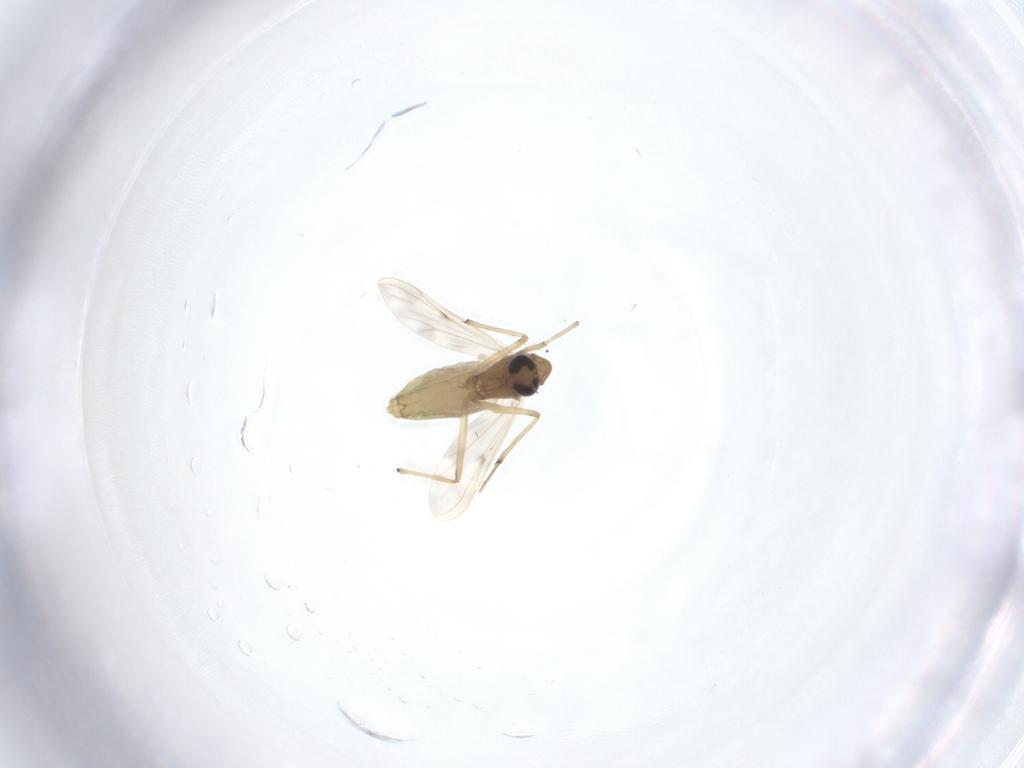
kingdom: Animalia
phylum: Arthropoda
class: Insecta
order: Diptera
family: Chironomidae
